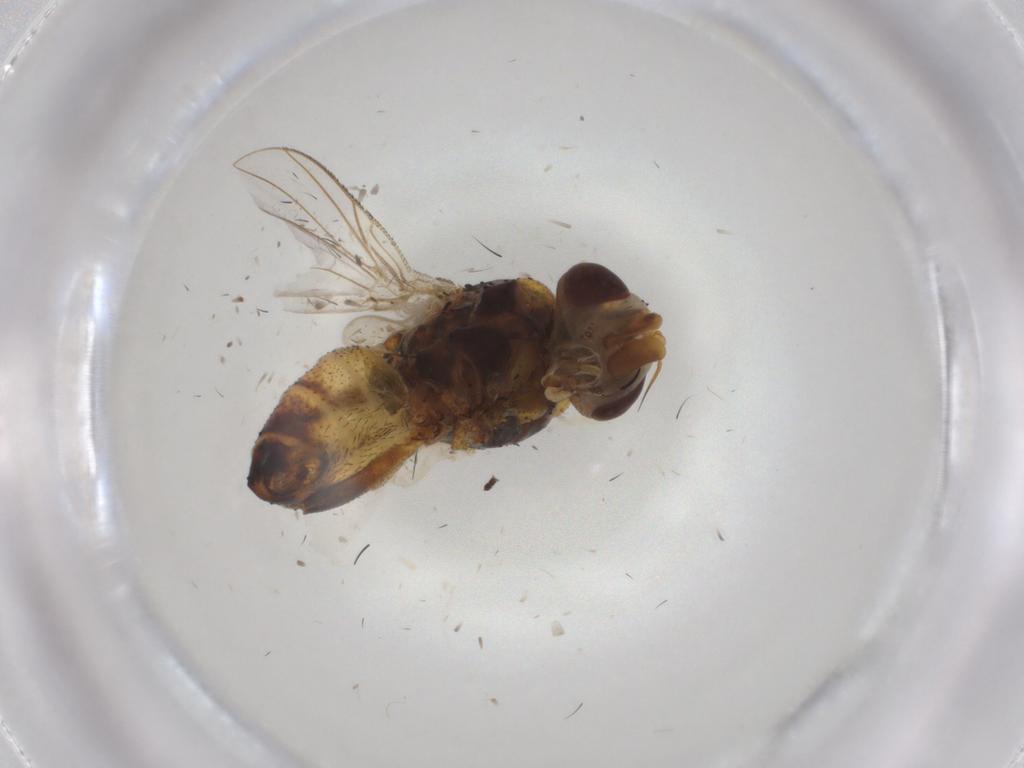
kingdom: Animalia
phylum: Arthropoda
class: Insecta
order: Diptera
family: Glossinidae
